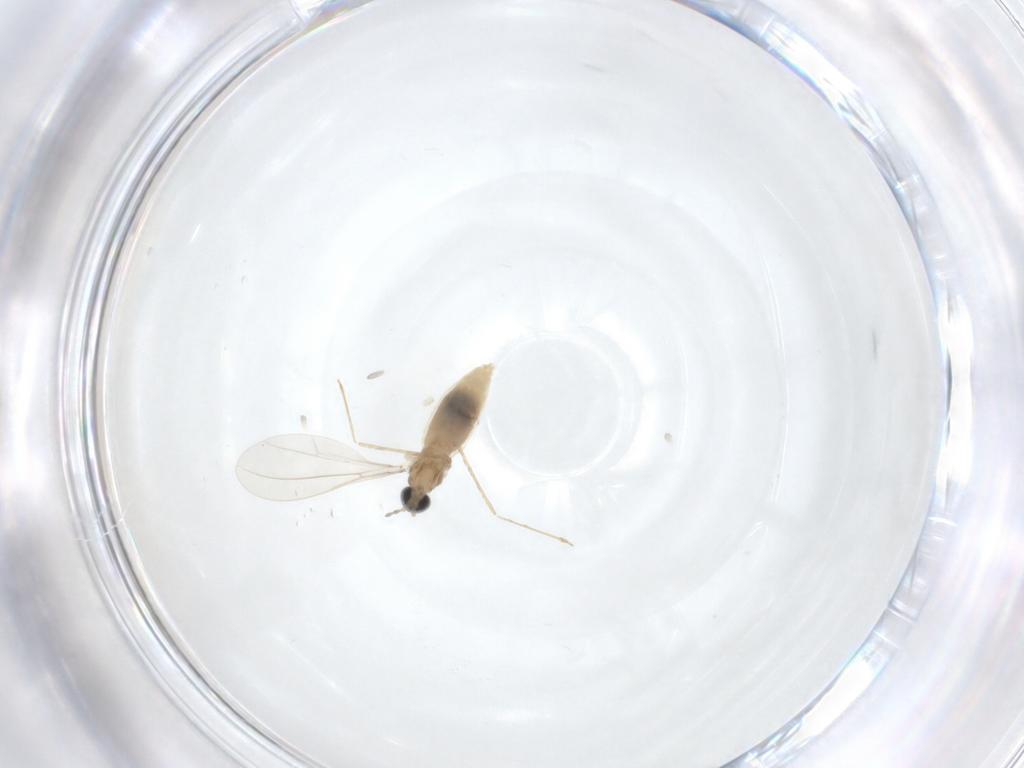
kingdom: Animalia
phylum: Arthropoda
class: Insecta
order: Diptera
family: Cecidomyiidae
